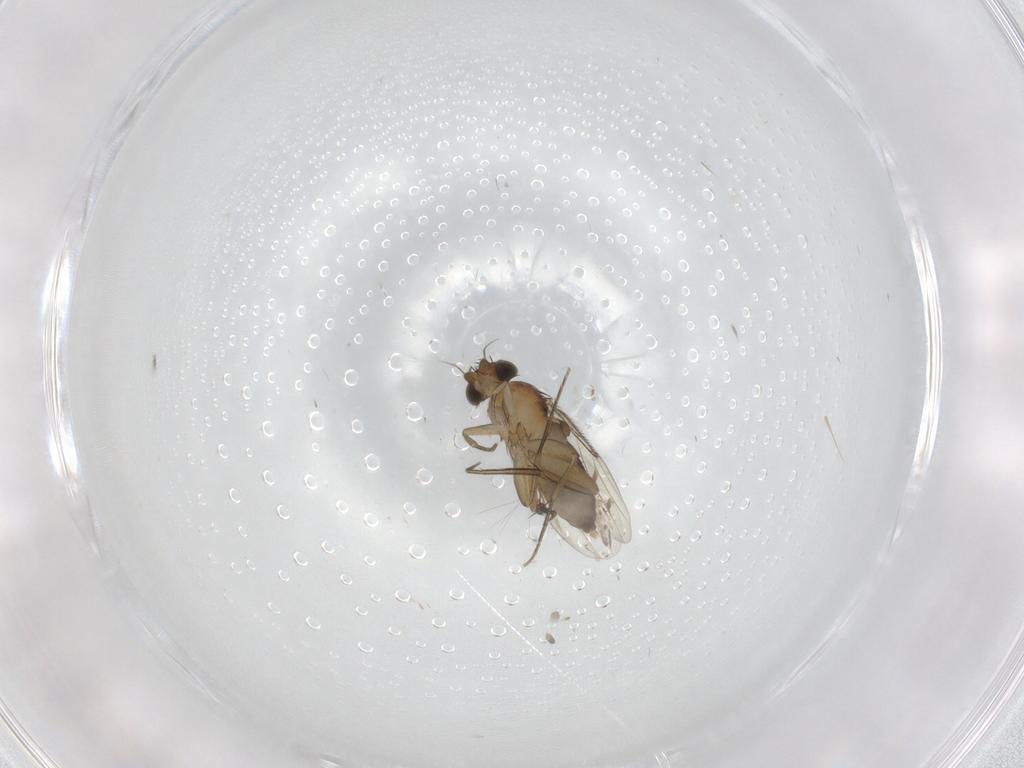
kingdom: Animalia
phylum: Arthropoda
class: Insecta
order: Diptera
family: Phoridae
